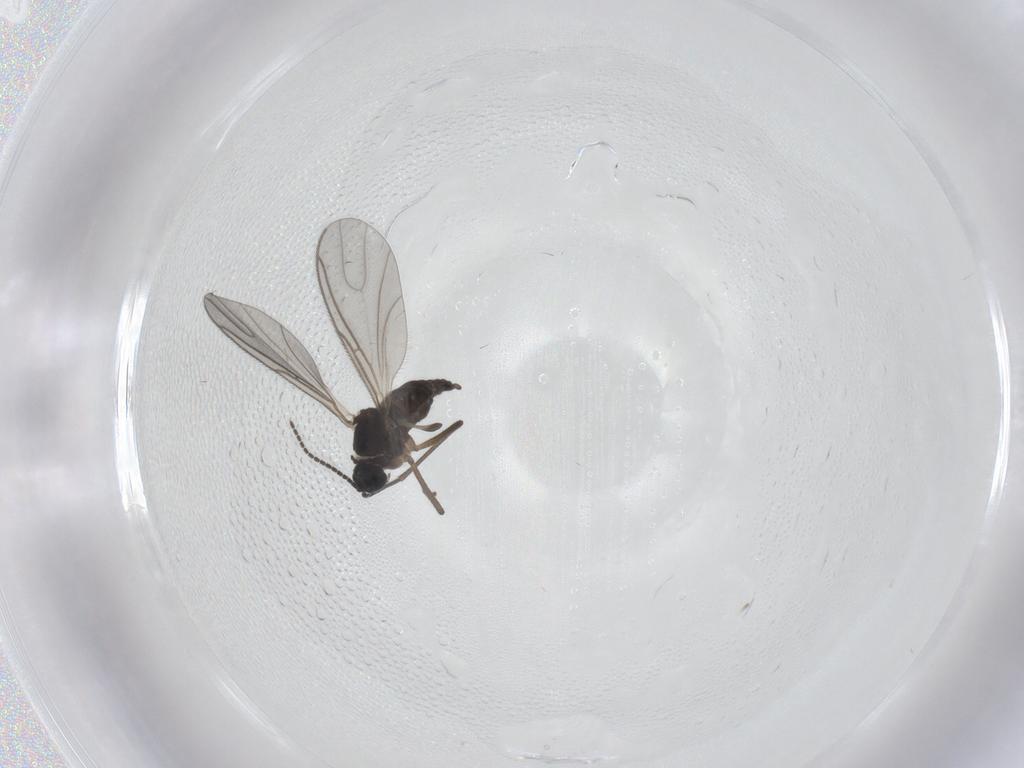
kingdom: Animalia
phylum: Arthropoda
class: Insecta
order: Diptera
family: Sciaridae
